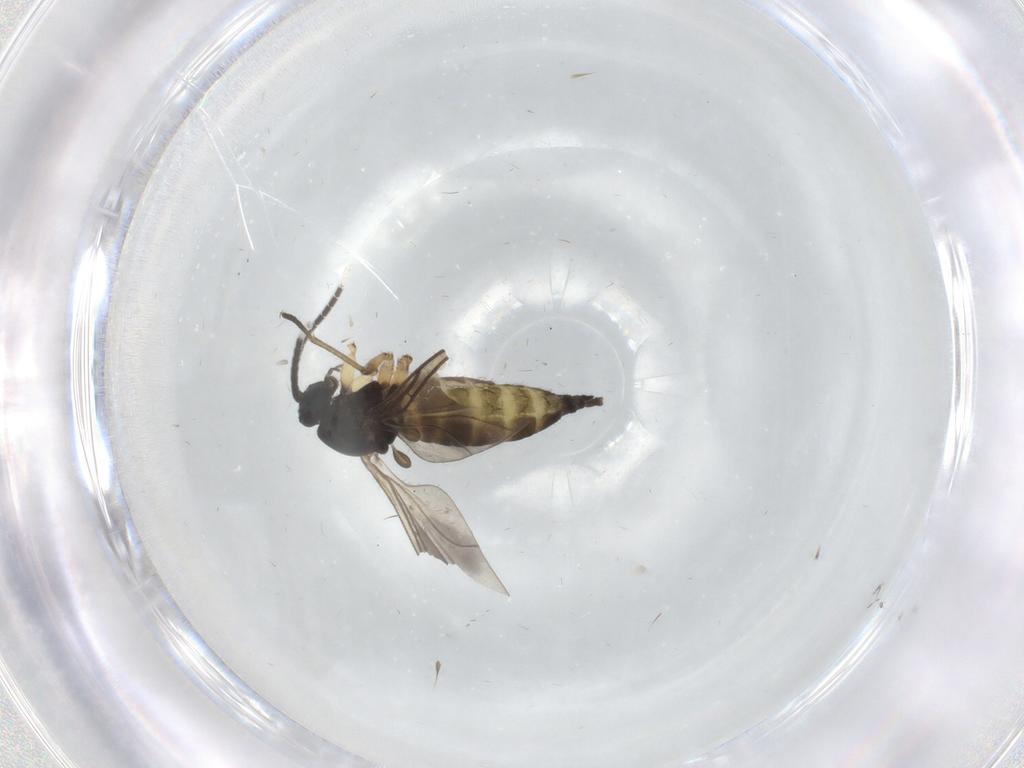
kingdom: Animalia
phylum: Arthropoda
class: Insecta
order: Diptera
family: Sciaridae
